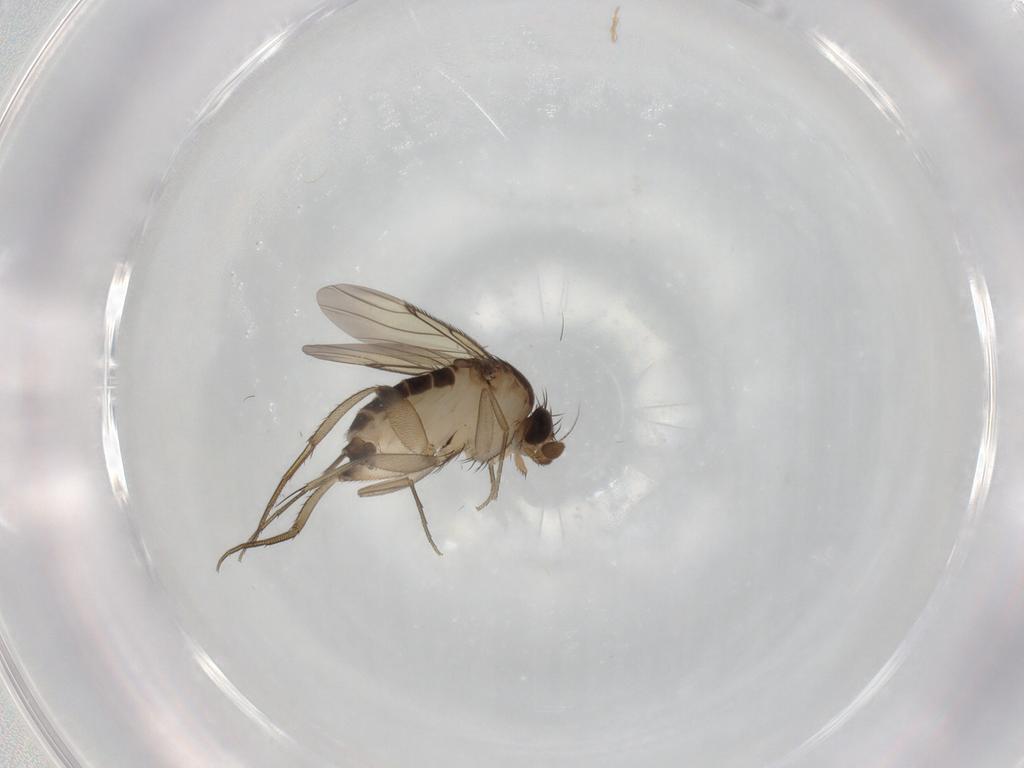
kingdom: Animalia
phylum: Arthropoda
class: Insecta
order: Diptera
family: Phoridae
